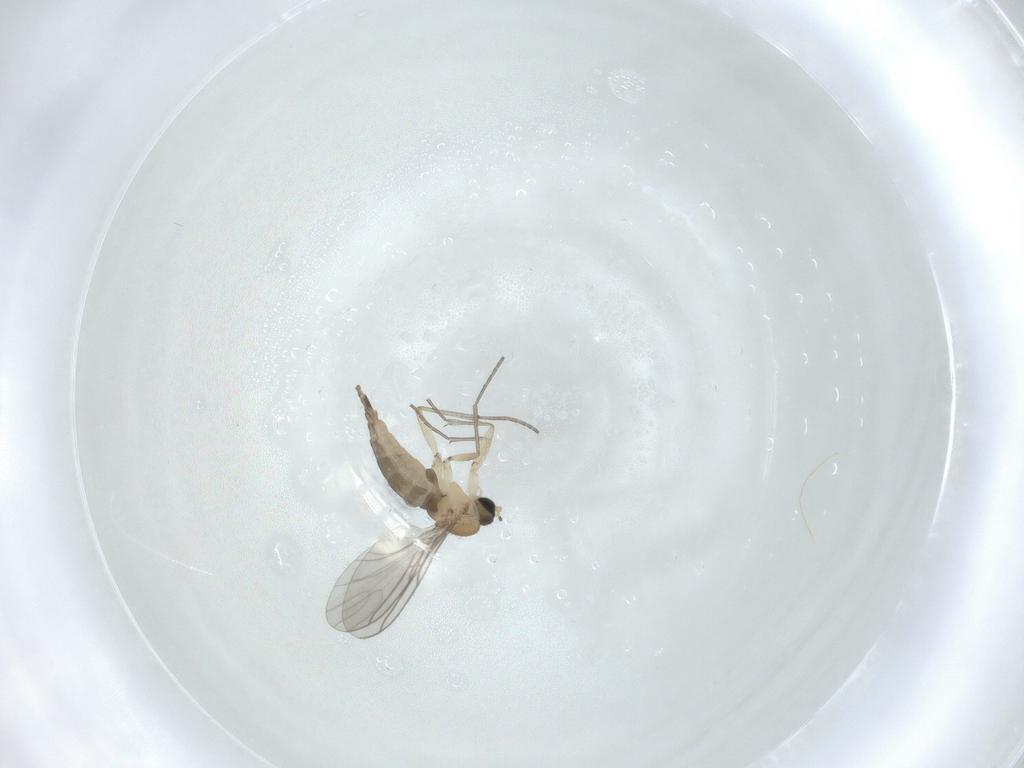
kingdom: Animalia
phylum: Arthropoda
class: Insecta
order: Diptera
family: Sciaridae
